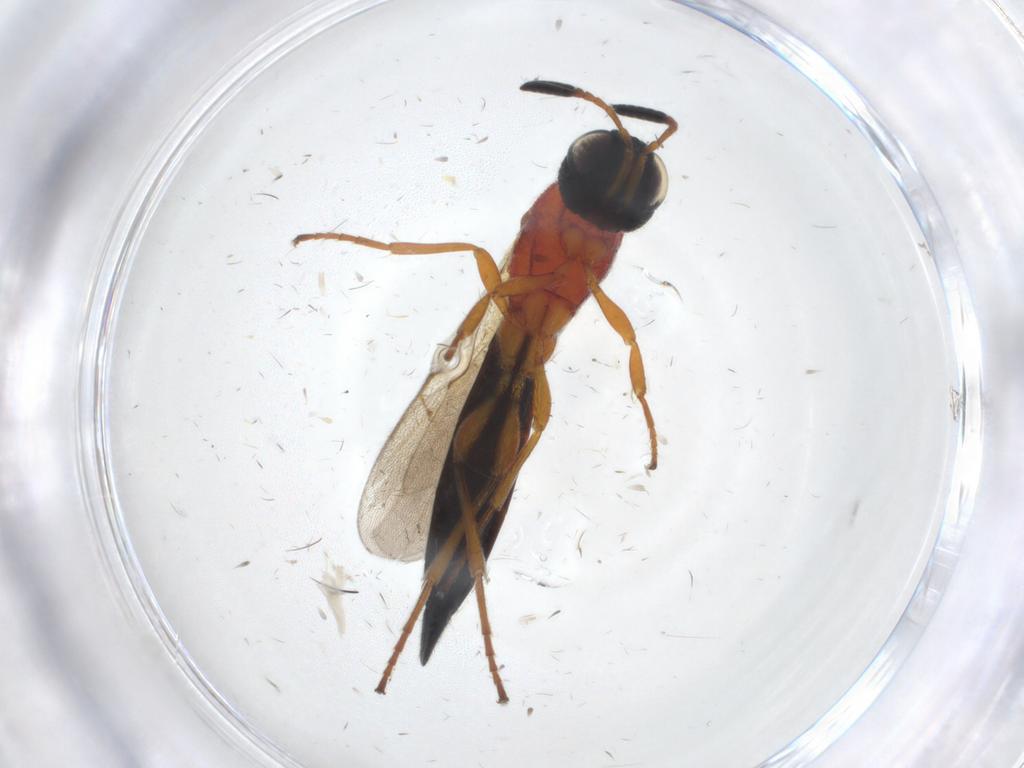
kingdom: Animalia
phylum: Arthropoda
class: Insecta
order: Hymenoptera
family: Scelionidae
